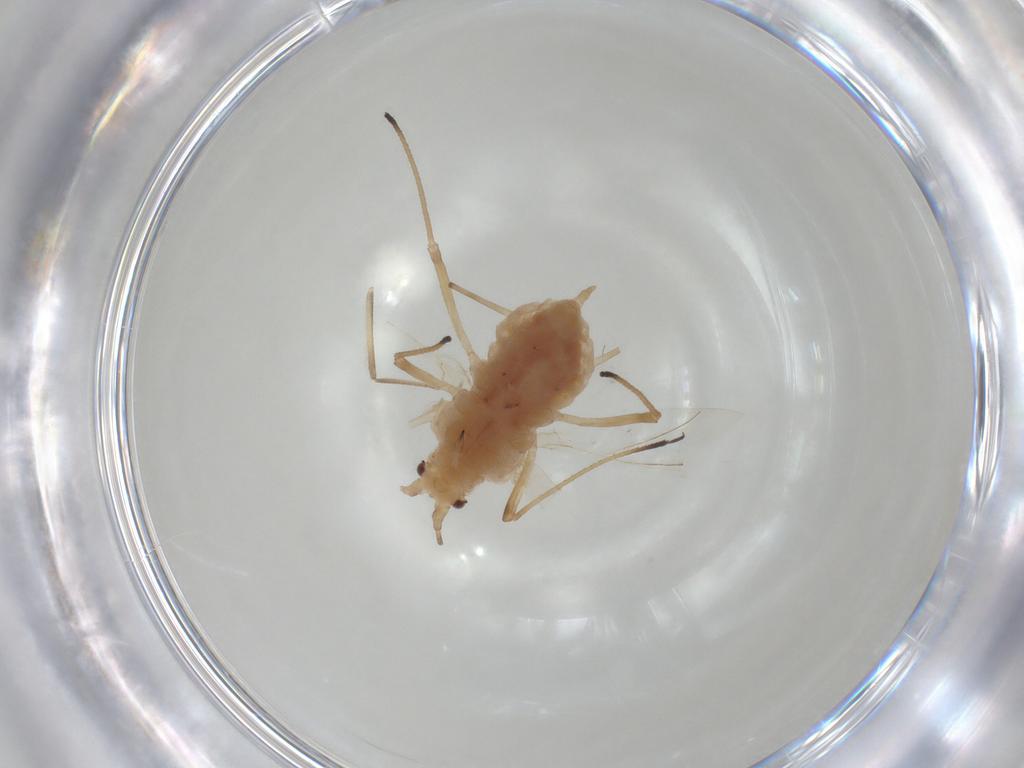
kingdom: Animalia
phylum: Arthropoda
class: Insecta
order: Hemiptera
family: Aphididae
